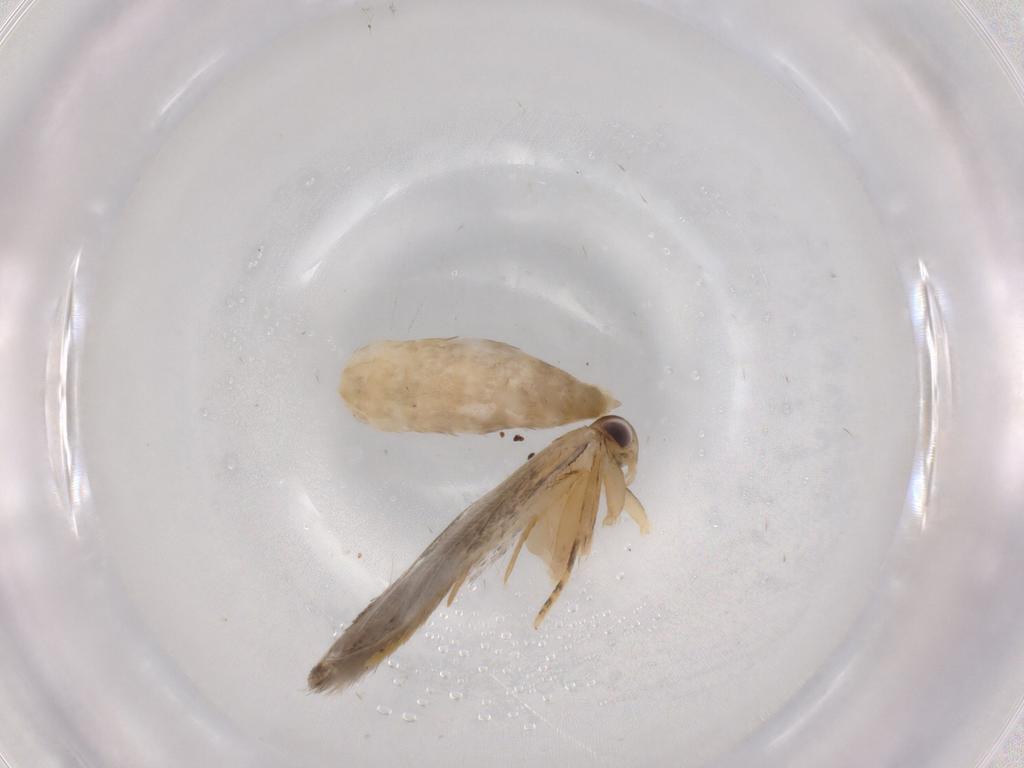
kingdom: Animalia
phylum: Arthropoda
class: Insecta
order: Lepidoptera
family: Autostichidae
